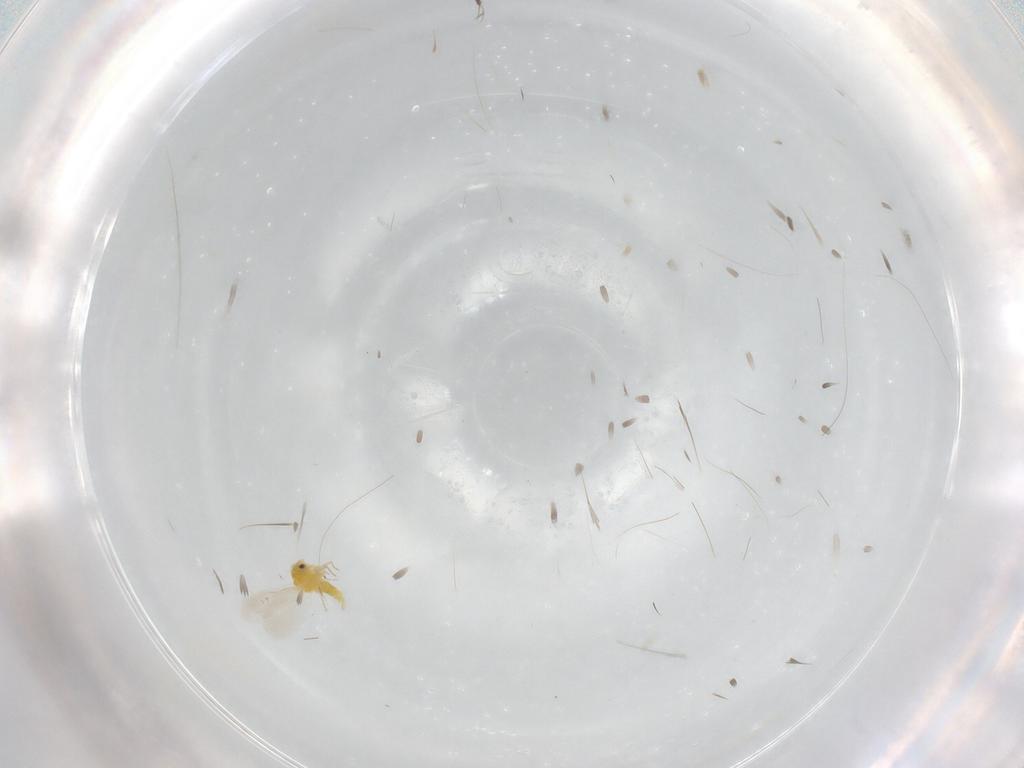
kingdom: Animalia
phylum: Arthropoda
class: Insecta
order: Hemiptera
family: Aleyrodidae
